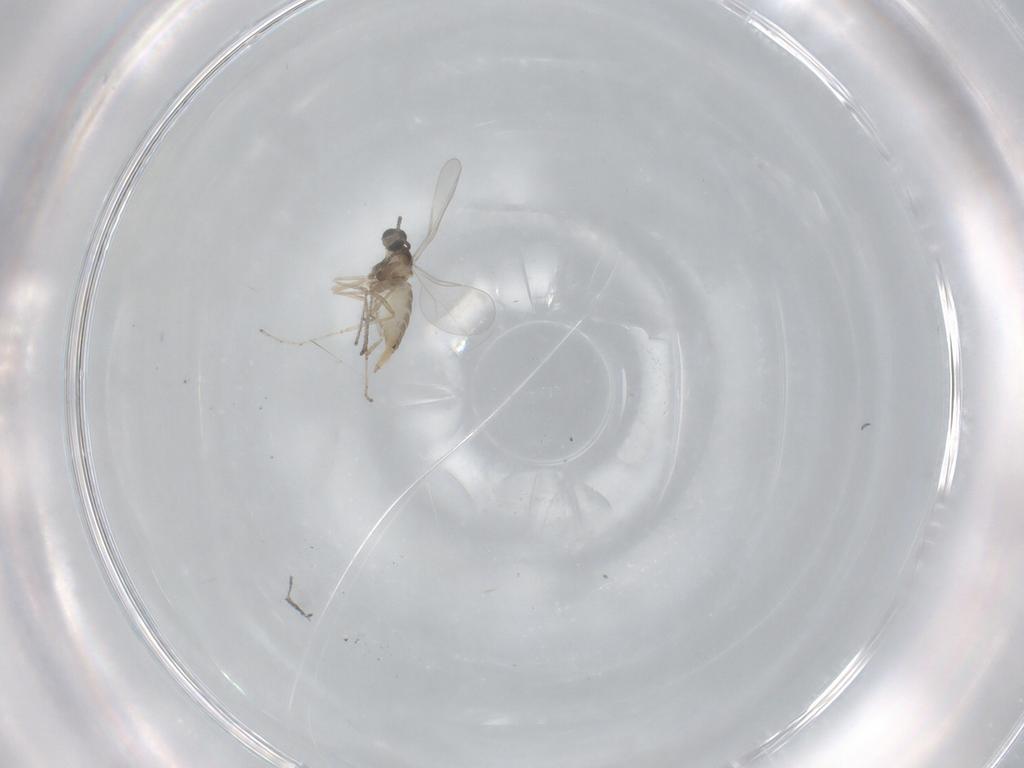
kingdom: Animalia
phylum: Arthropoda
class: Insecta
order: Diptera
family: Cecidomyiidae
